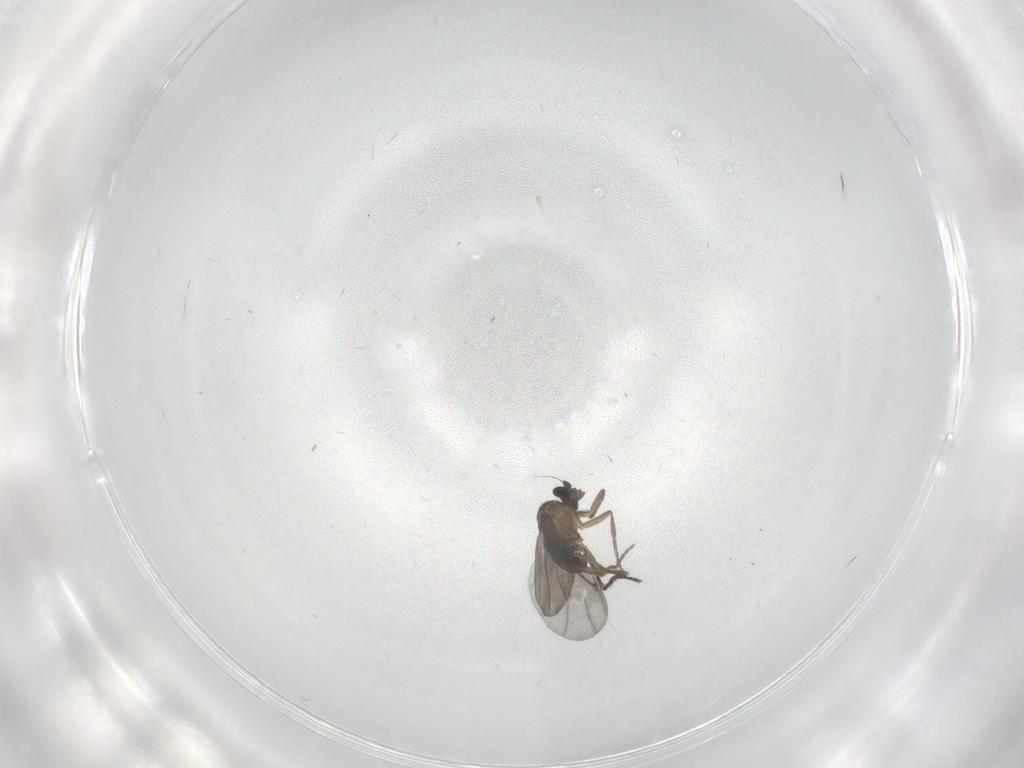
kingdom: Animalia
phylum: Arthropoda
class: Insecta
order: Diptera
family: Phoridae
